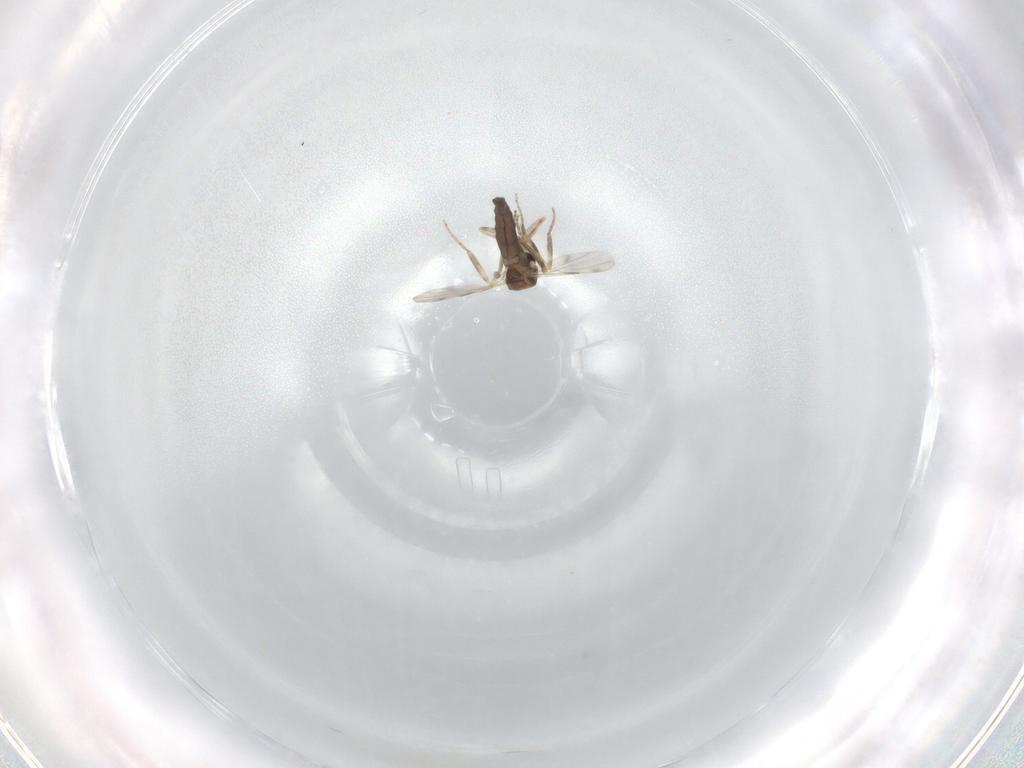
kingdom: Animalia
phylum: Arthropoda
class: Insecta
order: Diptera
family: Ceratopogonidae
